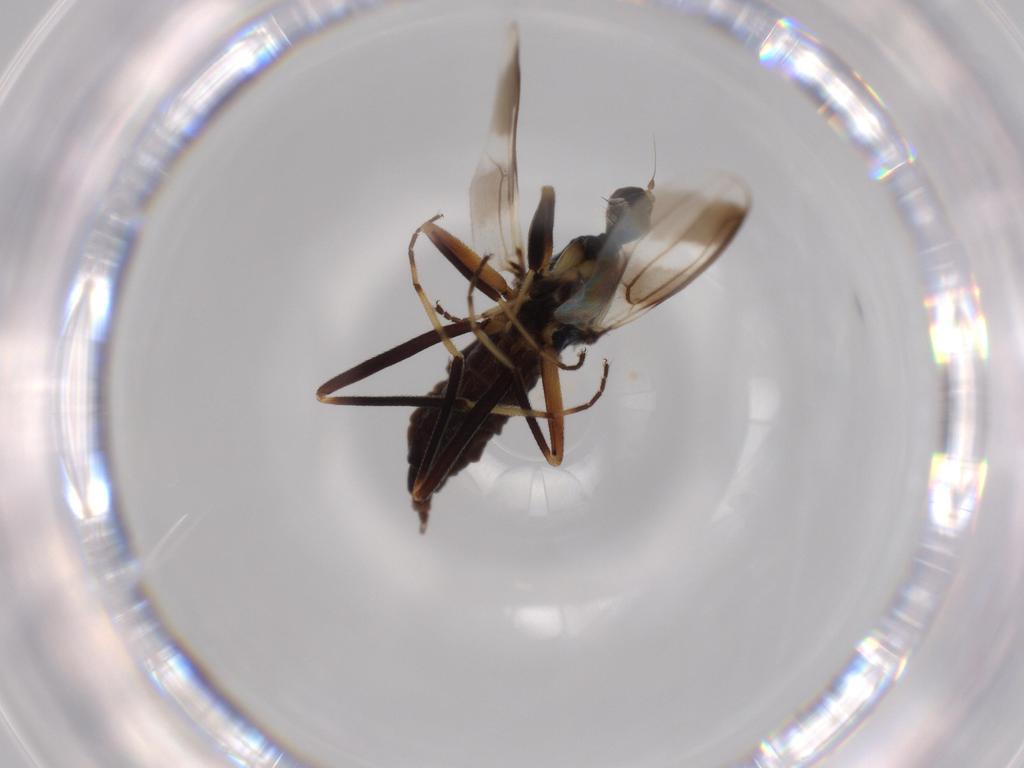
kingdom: Animalia
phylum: Arthropoda
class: Insecta
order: Diptera
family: Hybotidae
